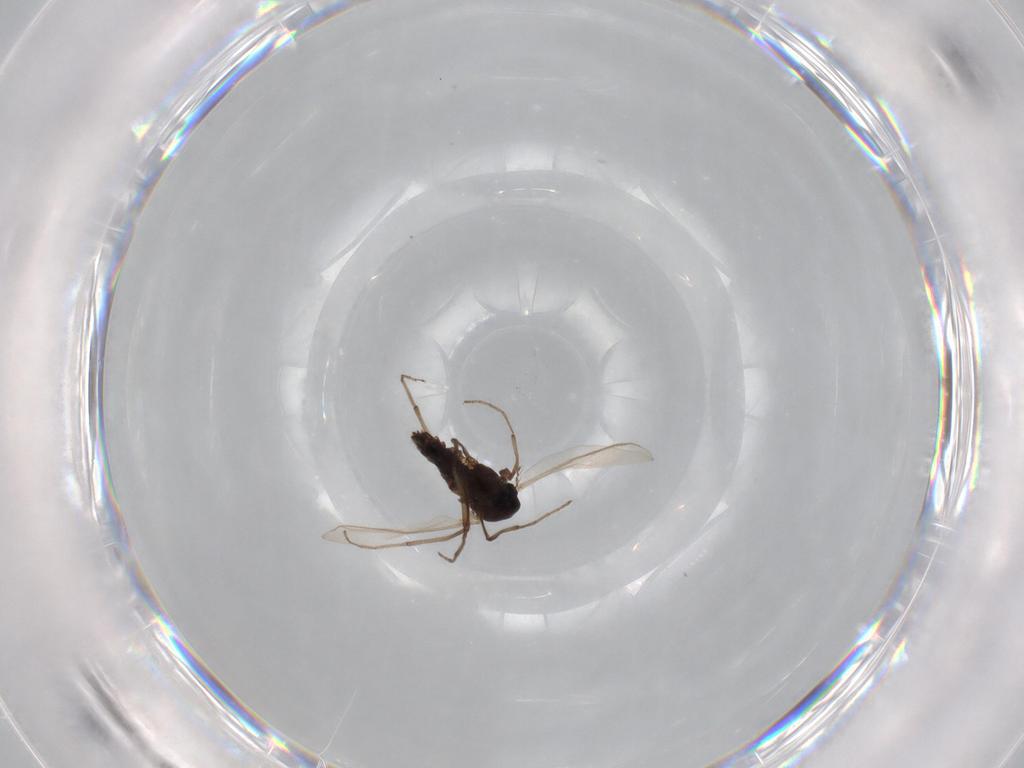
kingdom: Animalia
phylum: Arthropoda
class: Insecta
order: Diptera
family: Chironomidae
